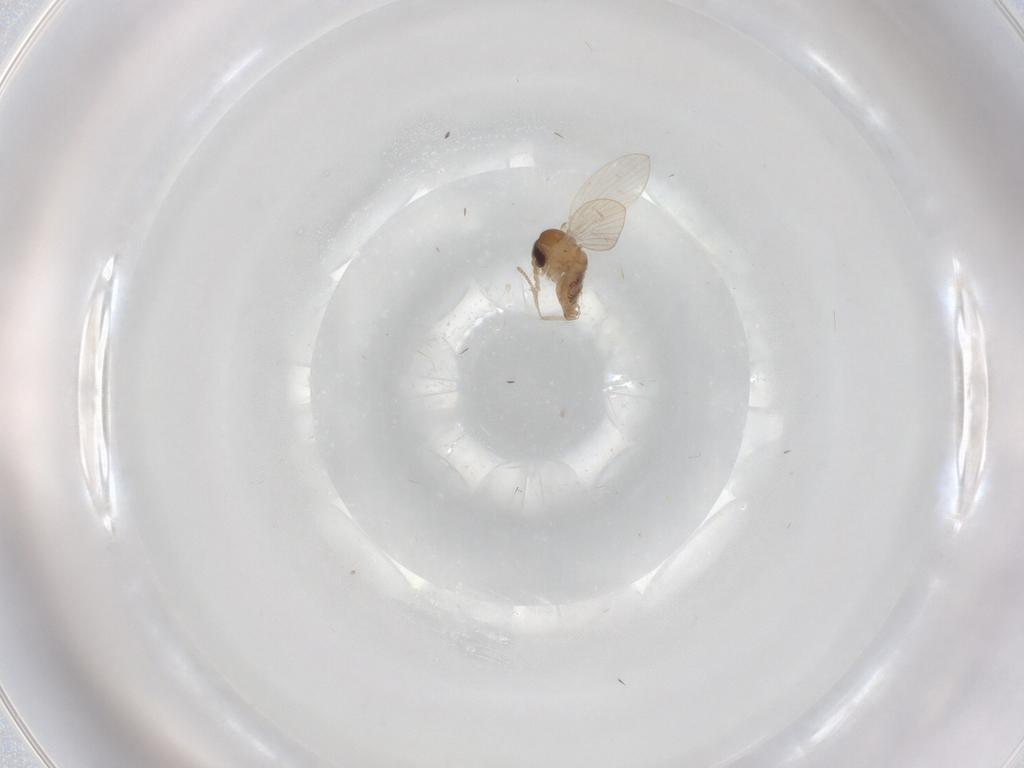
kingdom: Animalia
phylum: Arthropoda
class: Insecta
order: Diptera
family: Psychodidae
